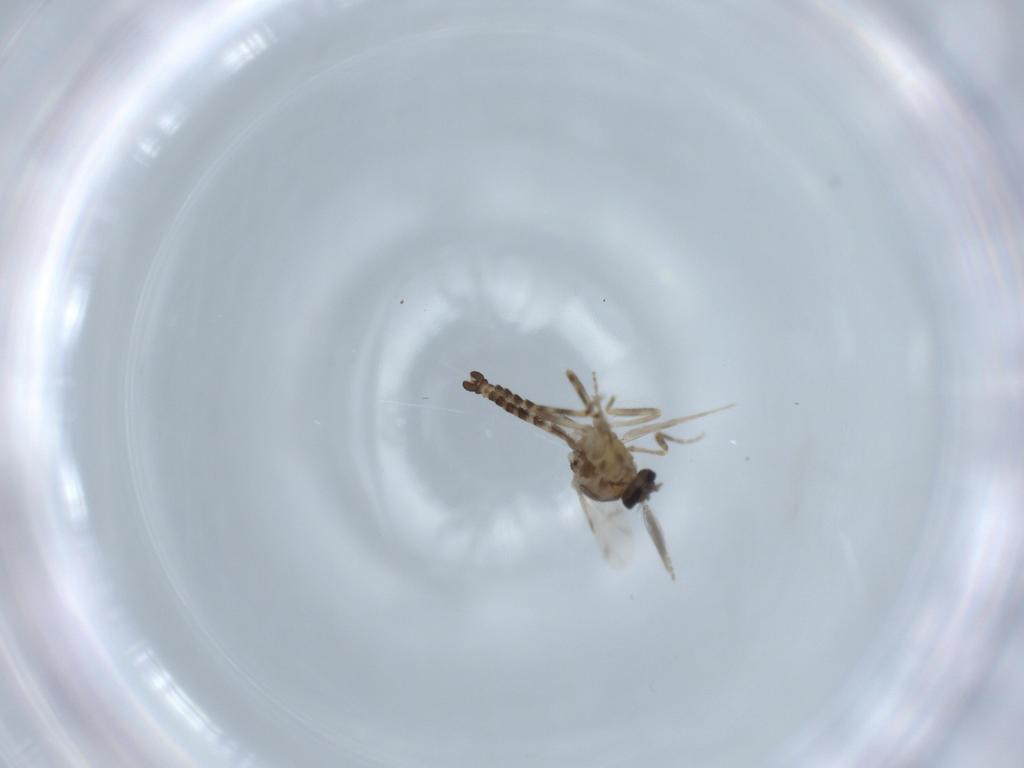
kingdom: Animalia
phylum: Arthropoda
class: Insecta
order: Diptera
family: Ceratopogonidae
